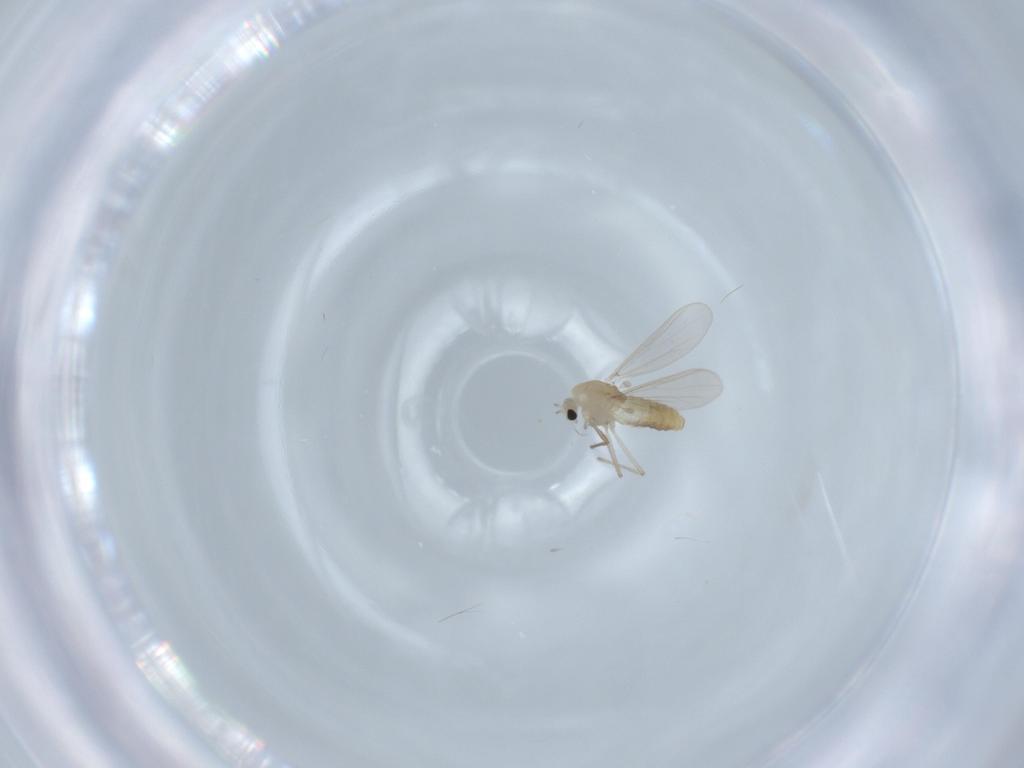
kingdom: Animalia
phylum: Arthropoda
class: Insecta
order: Diptera
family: Chironomidae
